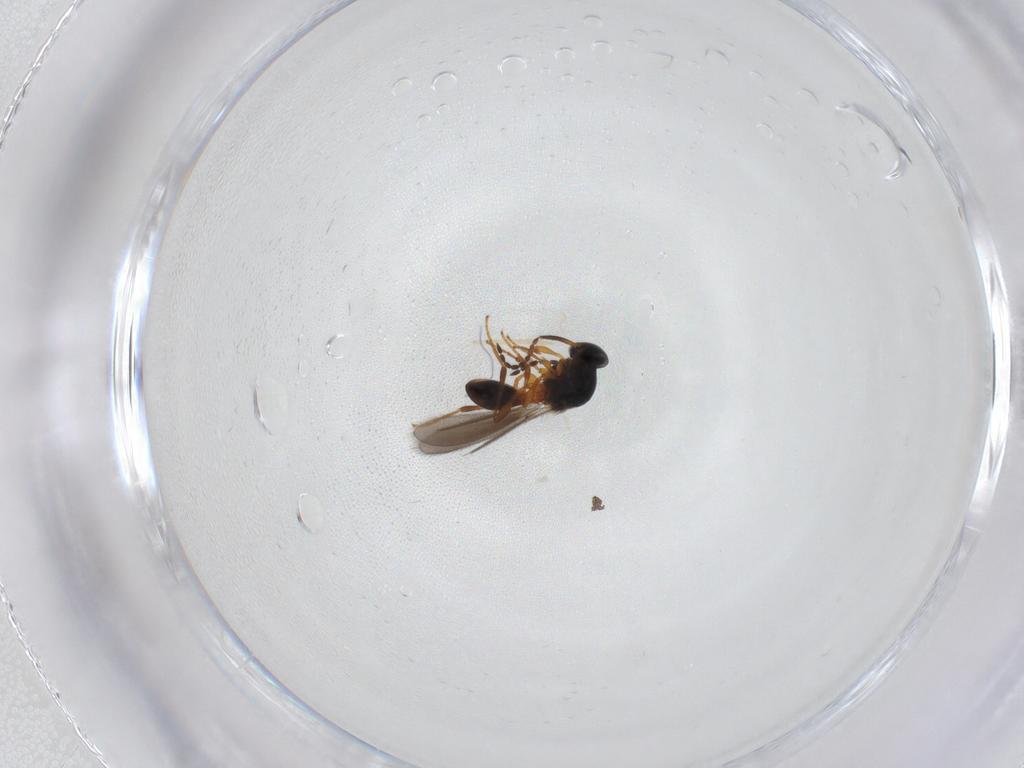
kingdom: Animalia
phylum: Arthropoda
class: Insecta
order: Hymenoptera
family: Platygastridae
